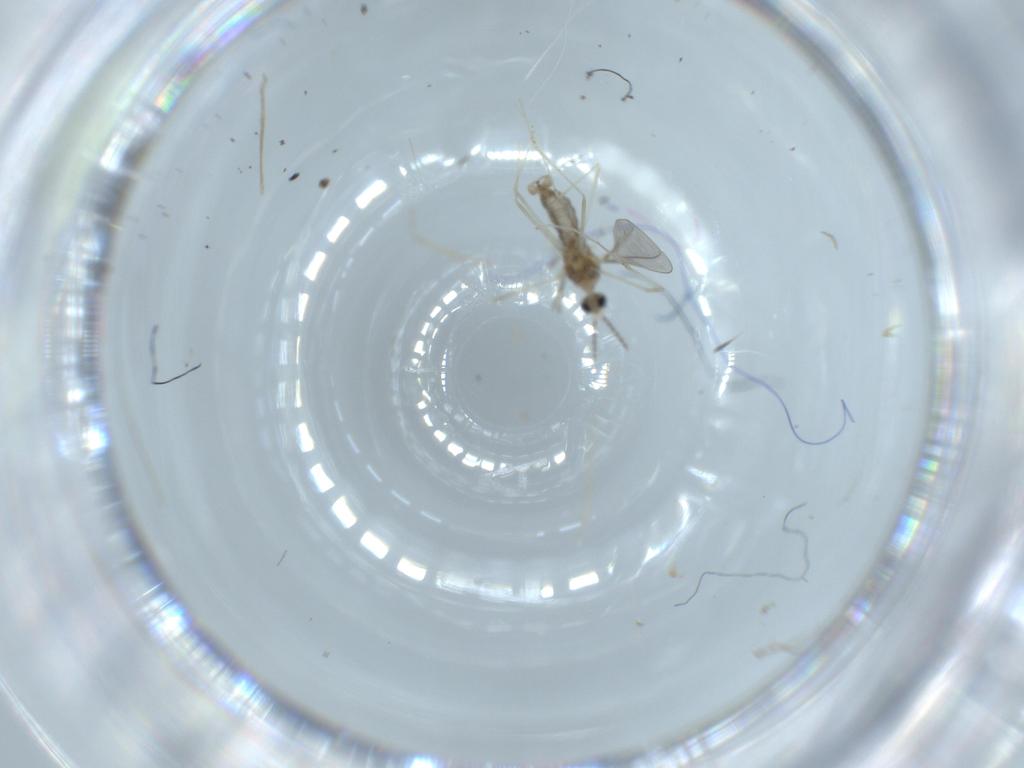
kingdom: Animalia
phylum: Arthropoda
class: Insecta
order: Diptera
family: Cecidomyiidae
